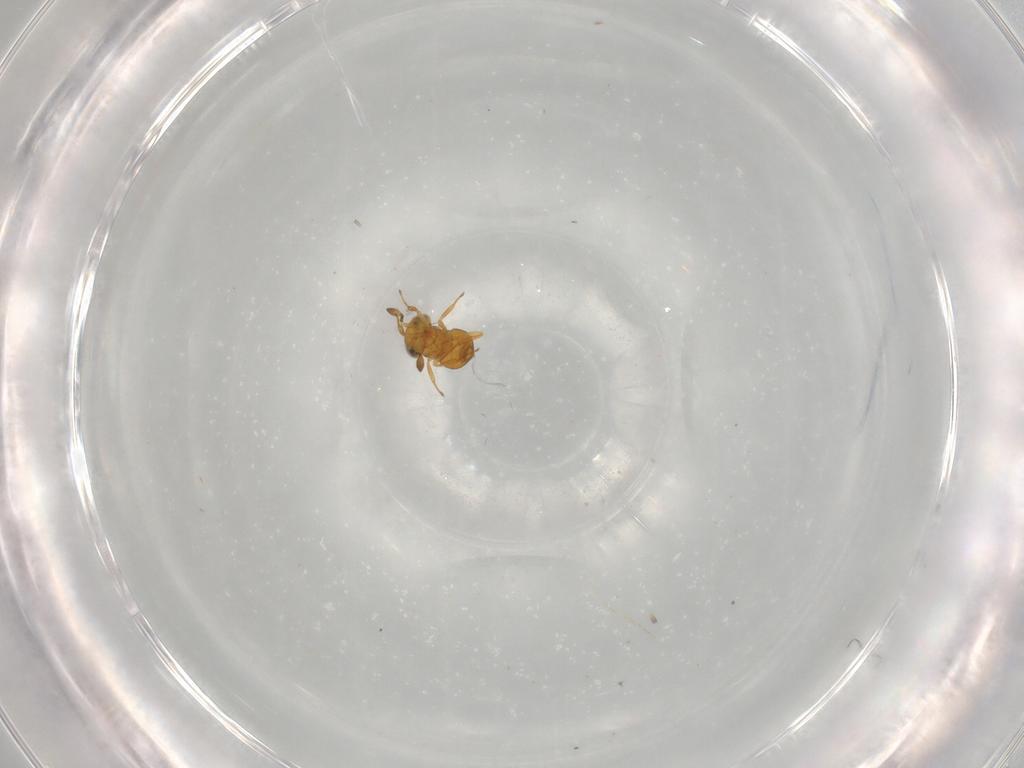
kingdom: Animalia
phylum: Arthropoda
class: Insecta
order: Hymenoptera
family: Scelionidae
